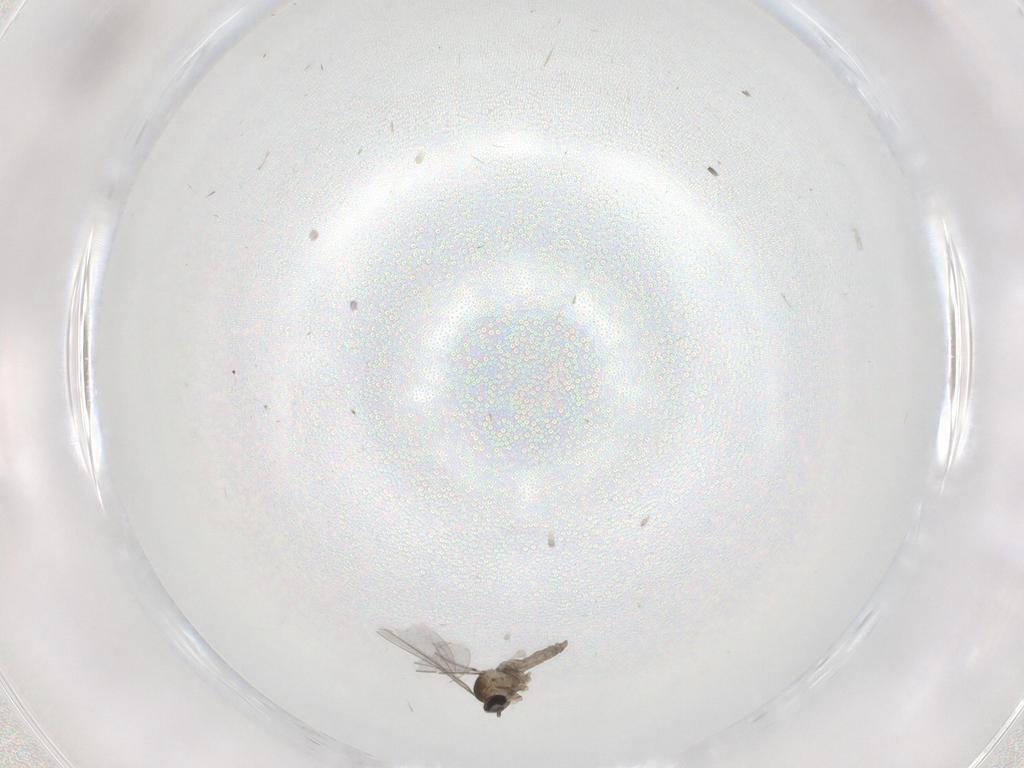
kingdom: Animalia
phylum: Arthropoda
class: Insecta
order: Diptera
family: Cecidomyiidae
